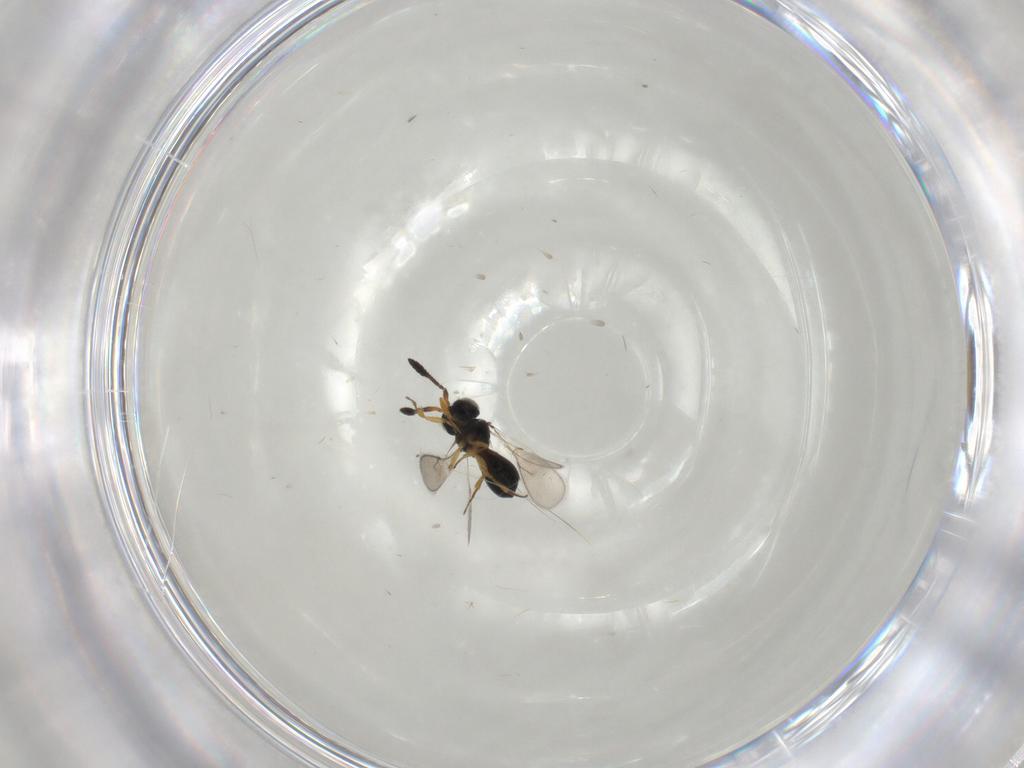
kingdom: Animalia
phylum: Arthropoda
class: Insecta
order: Hymenoptera
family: Scelionidae
